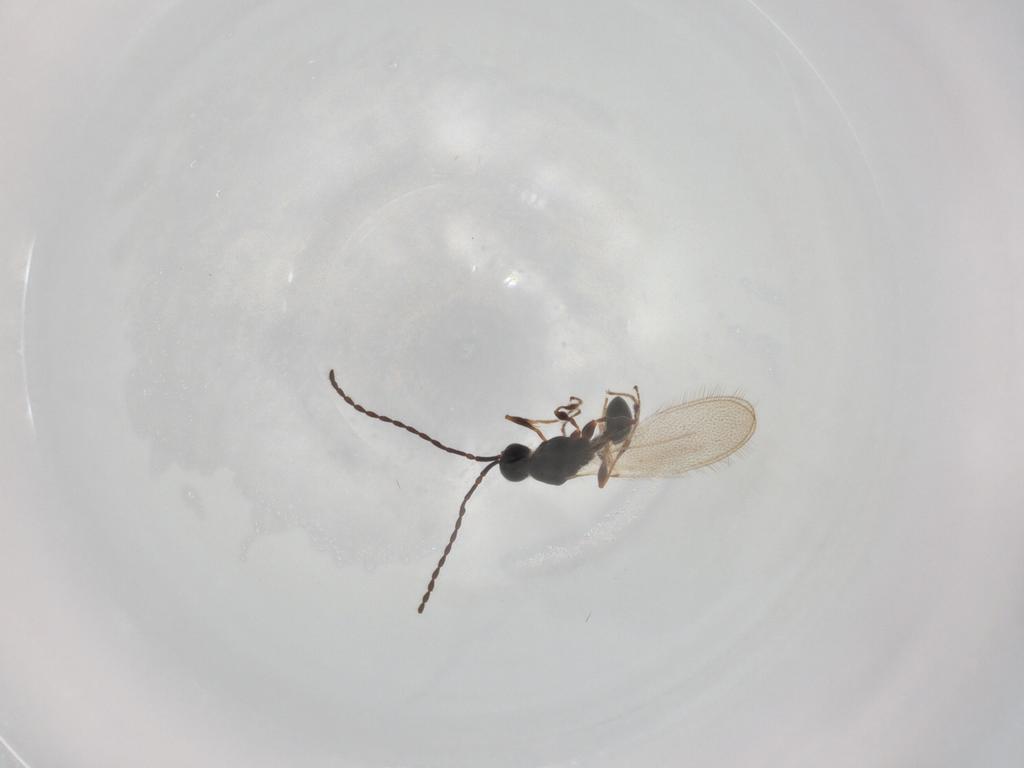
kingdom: Animalia
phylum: Arthropoda
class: Insecta
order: Hymenoptera
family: Diapriidae
